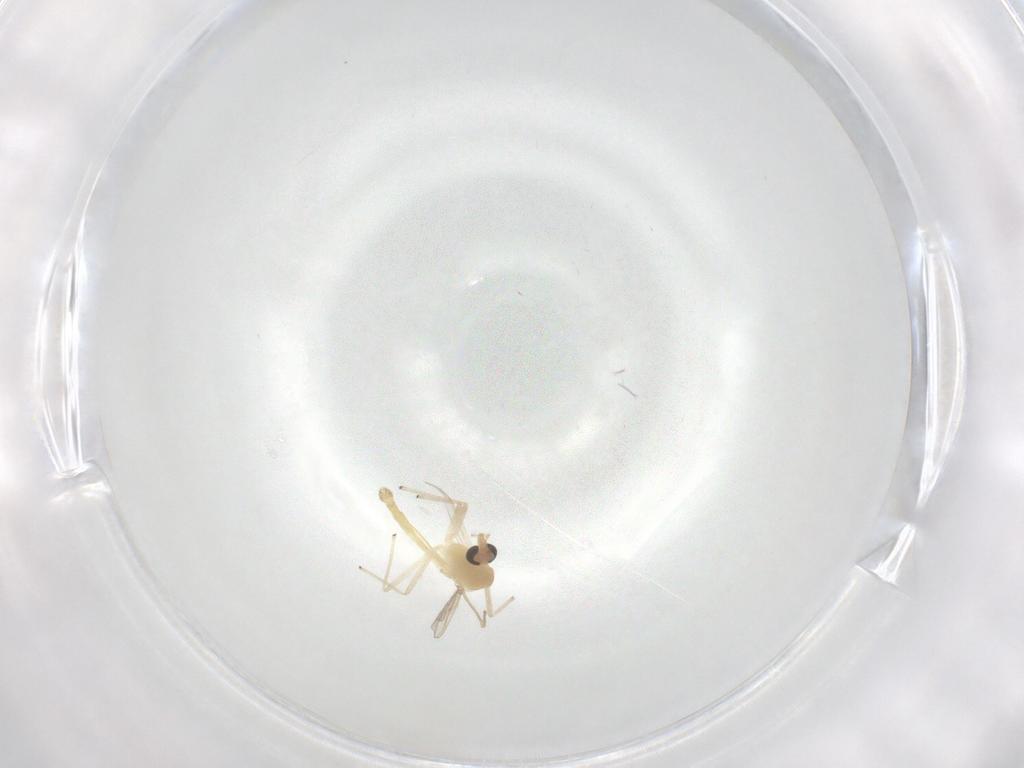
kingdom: Animalia
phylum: Arthropoda
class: Insecta
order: Diptera
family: Chironomidae
